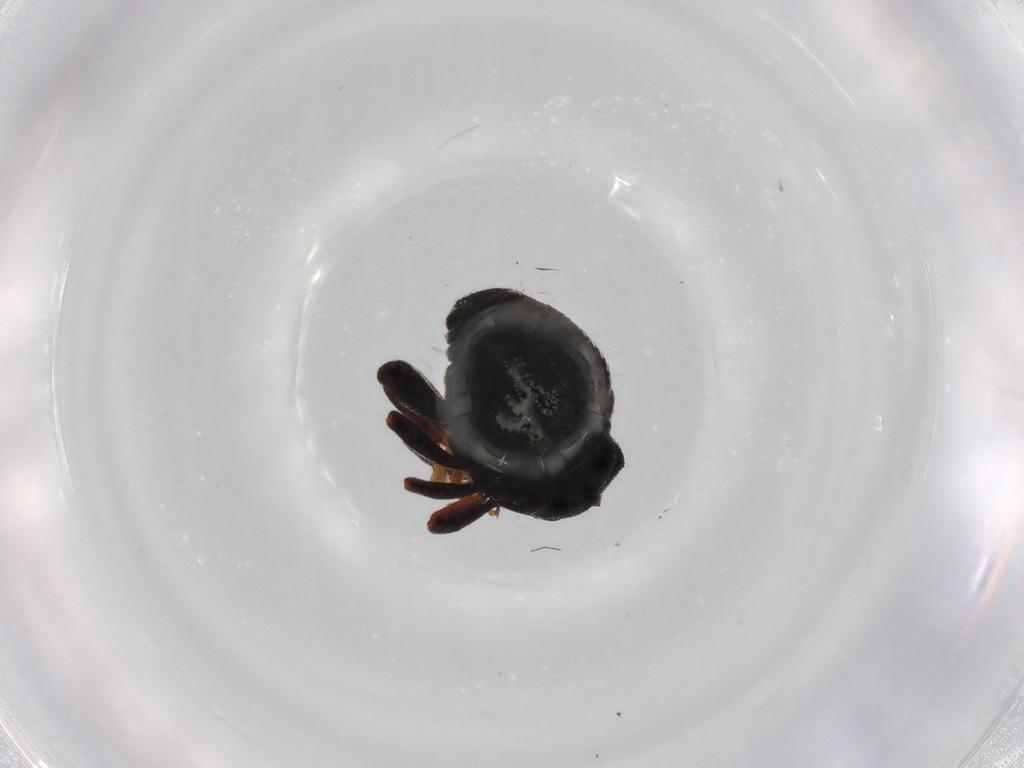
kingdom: Animalia
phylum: Arthropoda
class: Insecta
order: Coleoptera
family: Curculionidae
